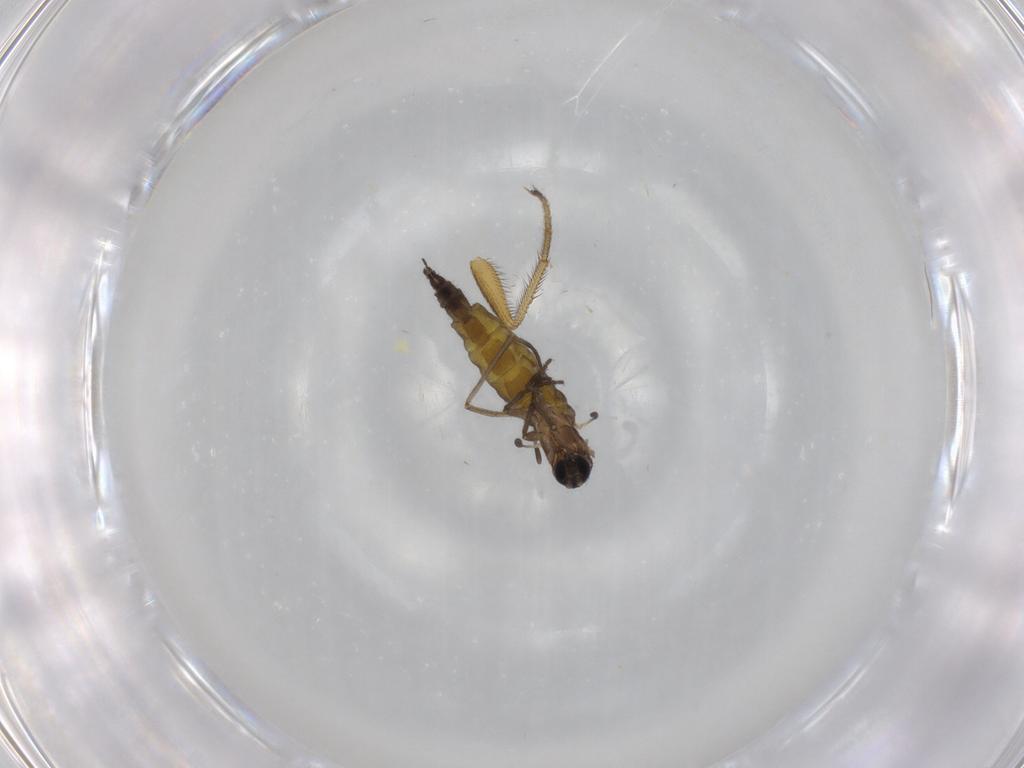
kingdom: Animalia
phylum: Arthropoda
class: Insecta
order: Diptera
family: Dolichopodidae
